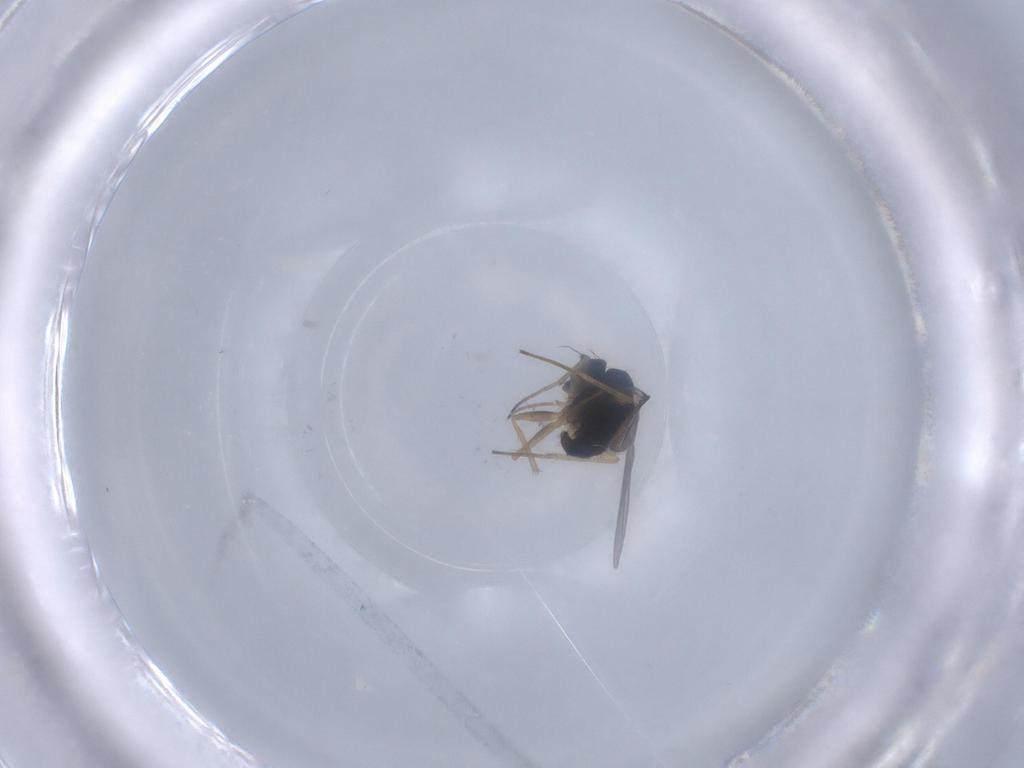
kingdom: Animalia
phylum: Arthropoda
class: Insecta
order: Diptera
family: Dolichopodidae
